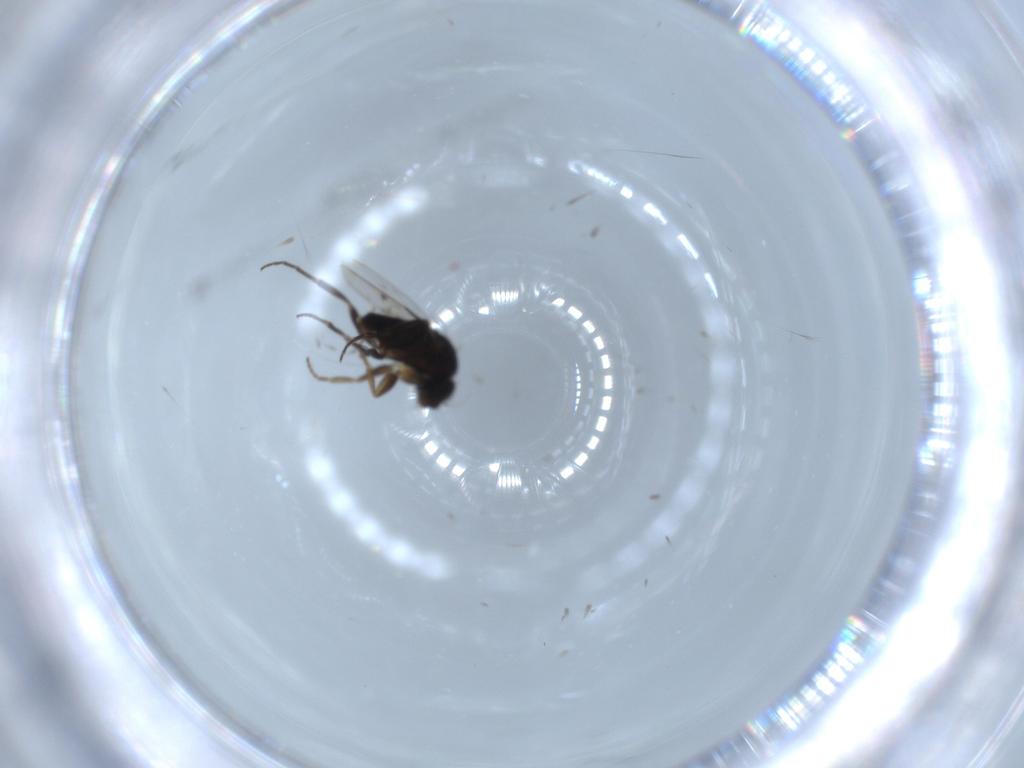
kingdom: Animalia
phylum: Arthropoda
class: Insecta
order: Diptera
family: Phoridae
